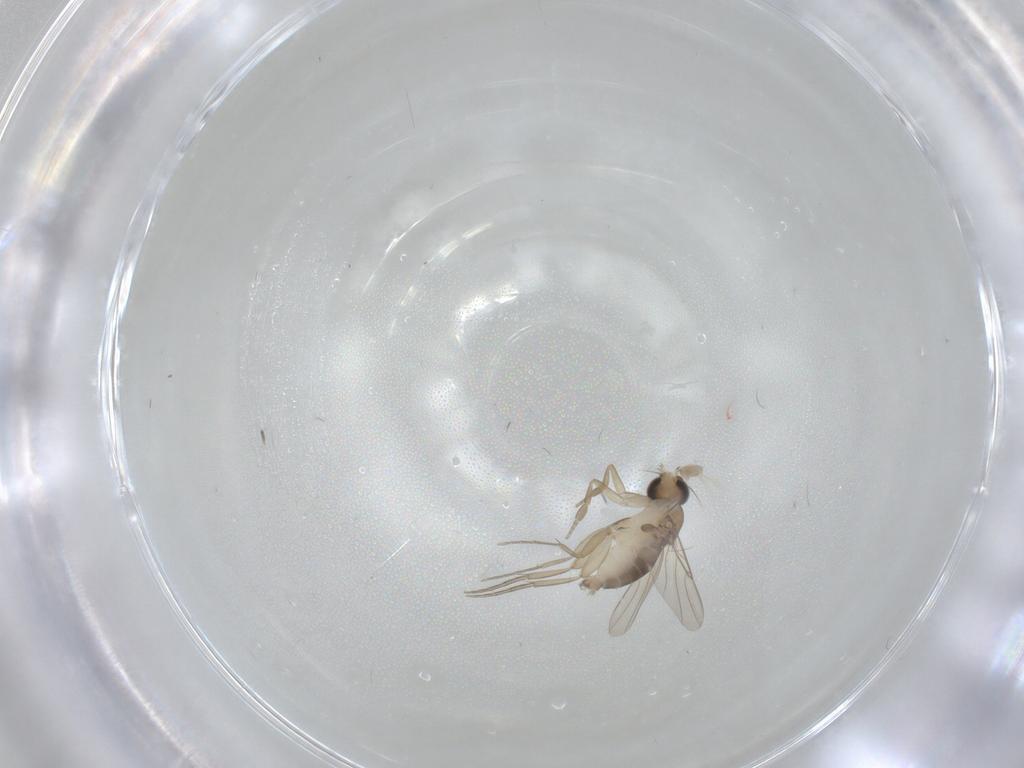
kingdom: Animalia
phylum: Arthropoda
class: Insecta
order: Diptera
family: Phoridae
